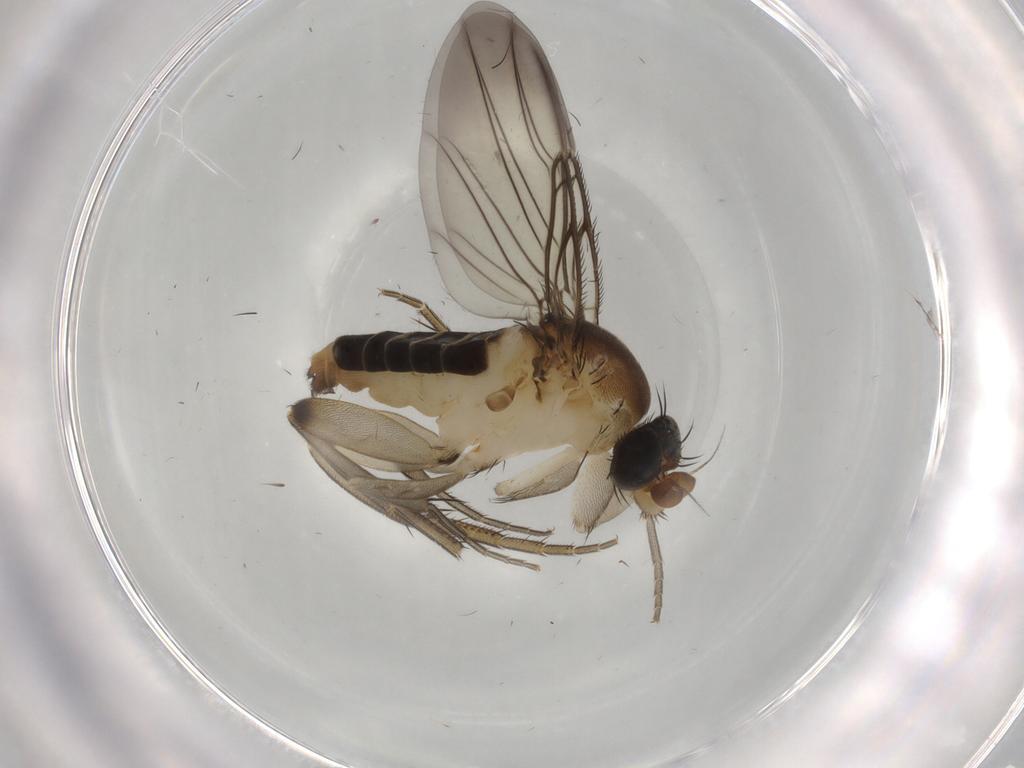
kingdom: Animalia
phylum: Arthropoda
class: Insecta
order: Diptera
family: Phoridae
